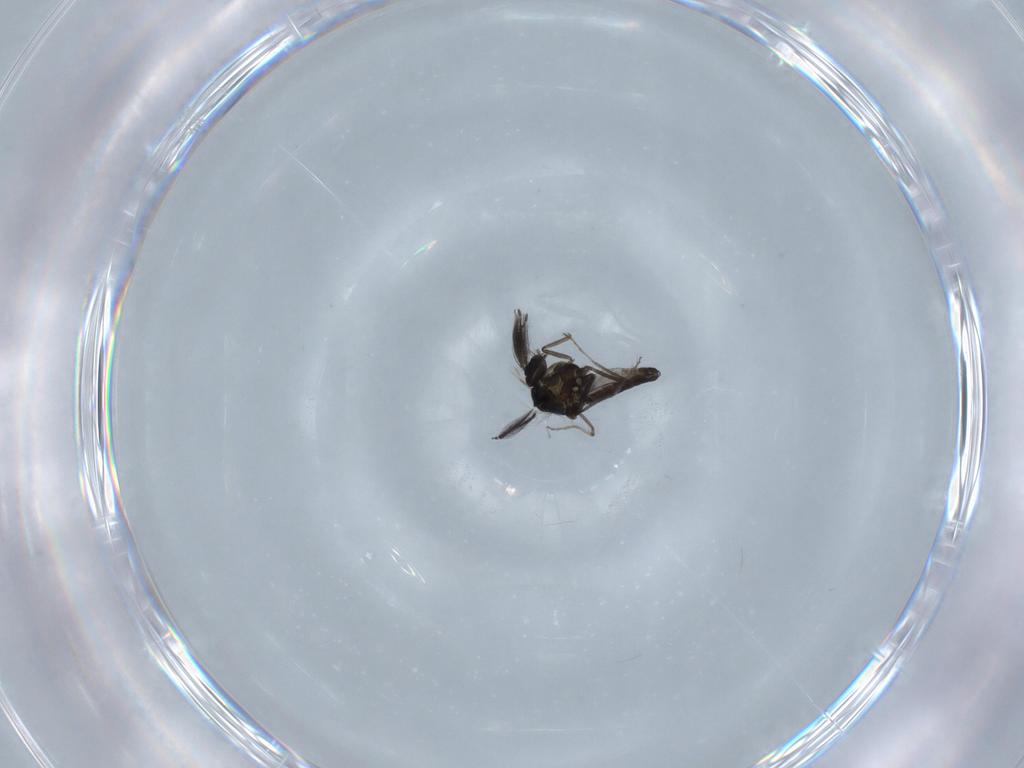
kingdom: Animalia
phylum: Arthropoda
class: Insecta
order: Diptera
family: Ceratopogonidae
